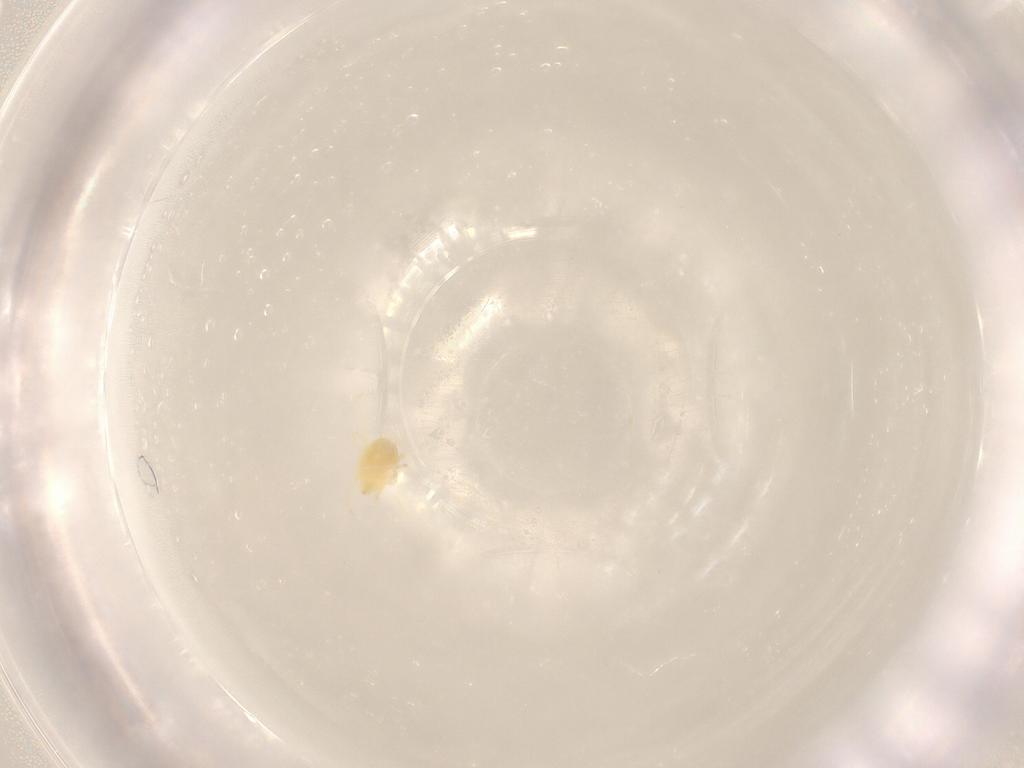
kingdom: Animalia
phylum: Arthropoda
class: Arachnida
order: Trombidiformes
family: Tetranychidae
